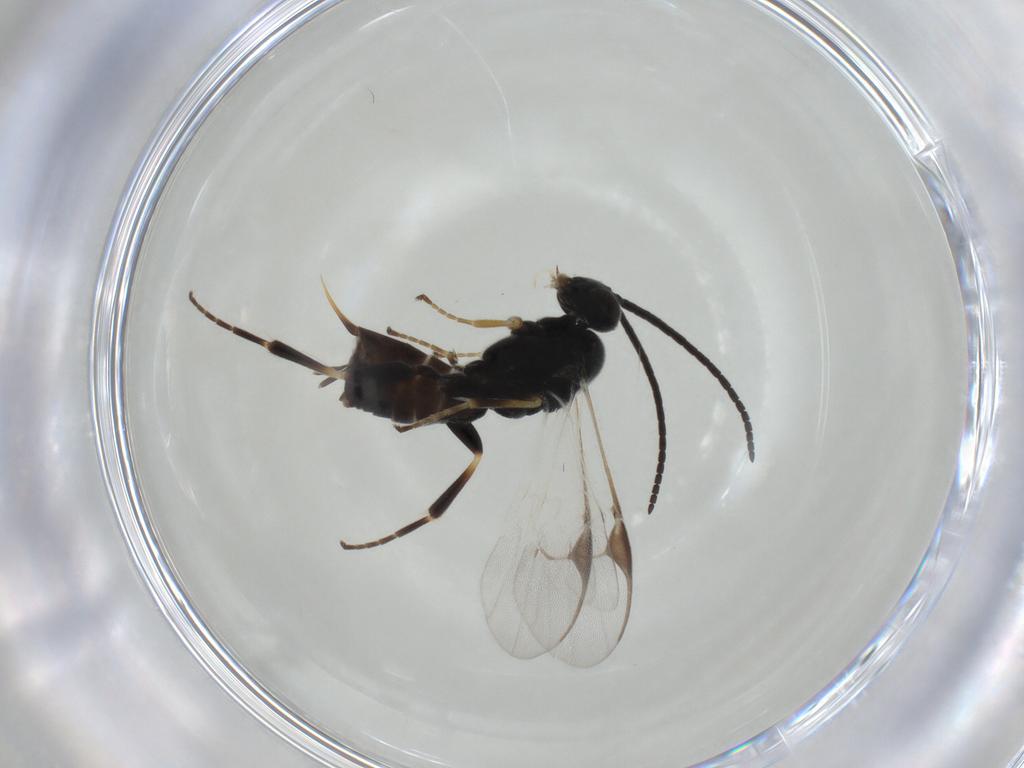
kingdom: Animalia
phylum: Arthropoda
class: Insecta
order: Hymenoptera
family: Braconidae
